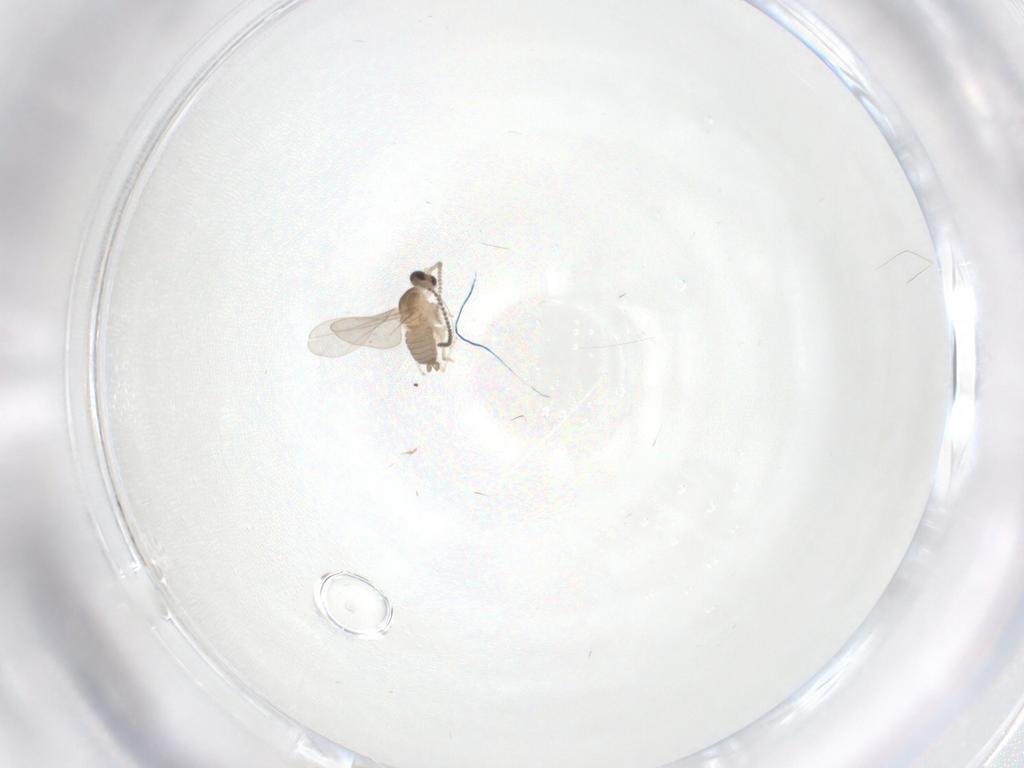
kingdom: Animalia
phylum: Arthropoda
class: Insecta
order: Diptera
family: Cecidomyiidae
